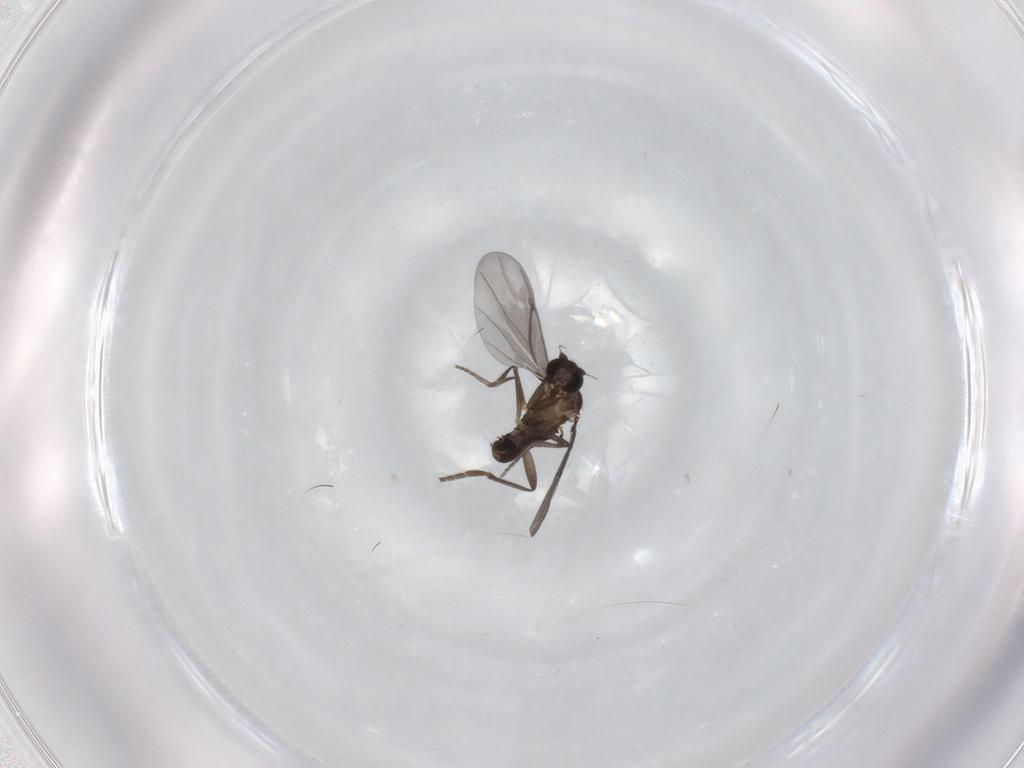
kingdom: Animalia
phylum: Arthropoda
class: Insecta
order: Diptera
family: Phoridae
